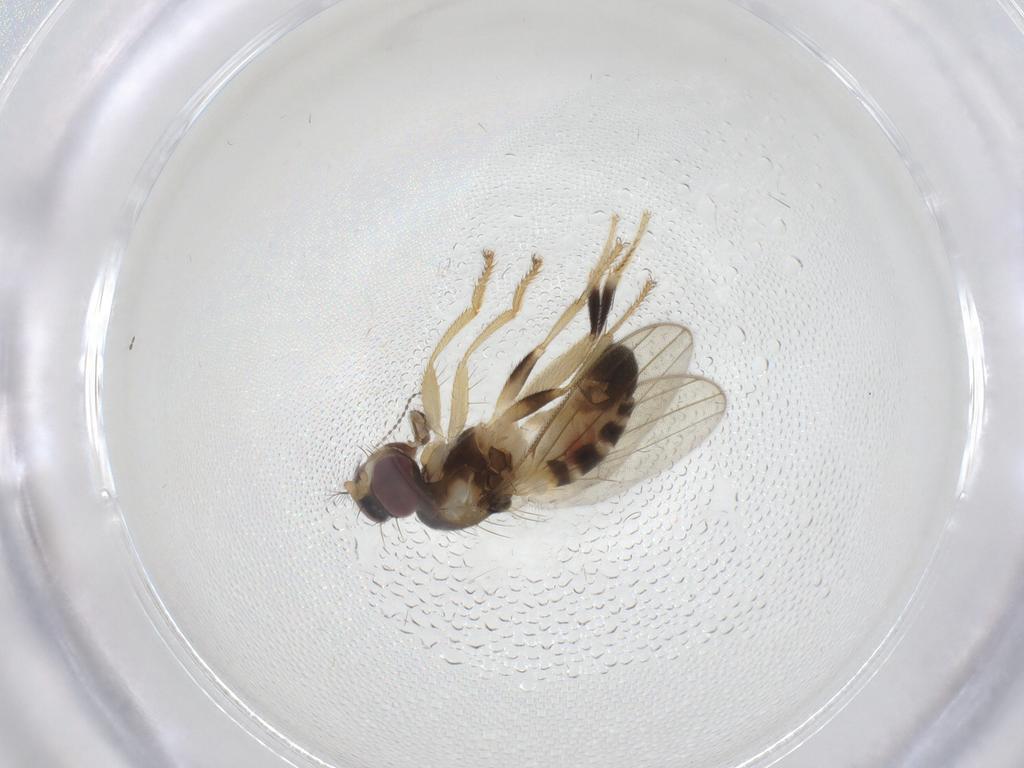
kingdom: Animalia
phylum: Arthropoda
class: Insecta
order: Diptera
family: Periscelididae
